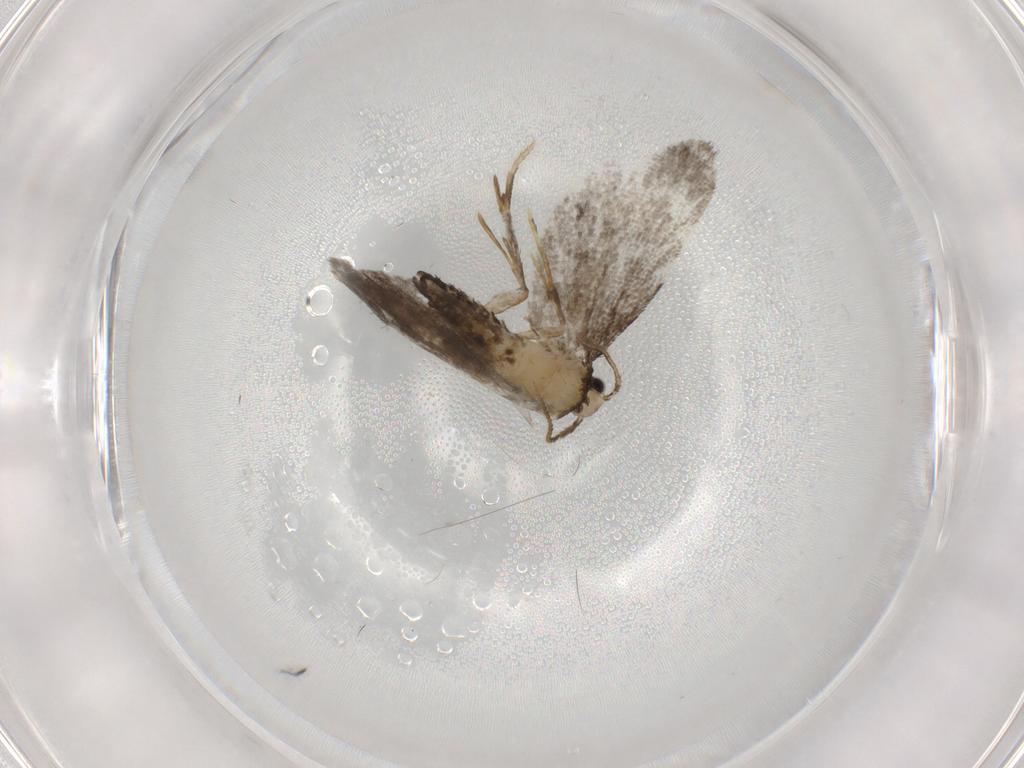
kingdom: Animalia
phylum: Arthropoda
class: Insecta
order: Lepidoptera
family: Psychidae
